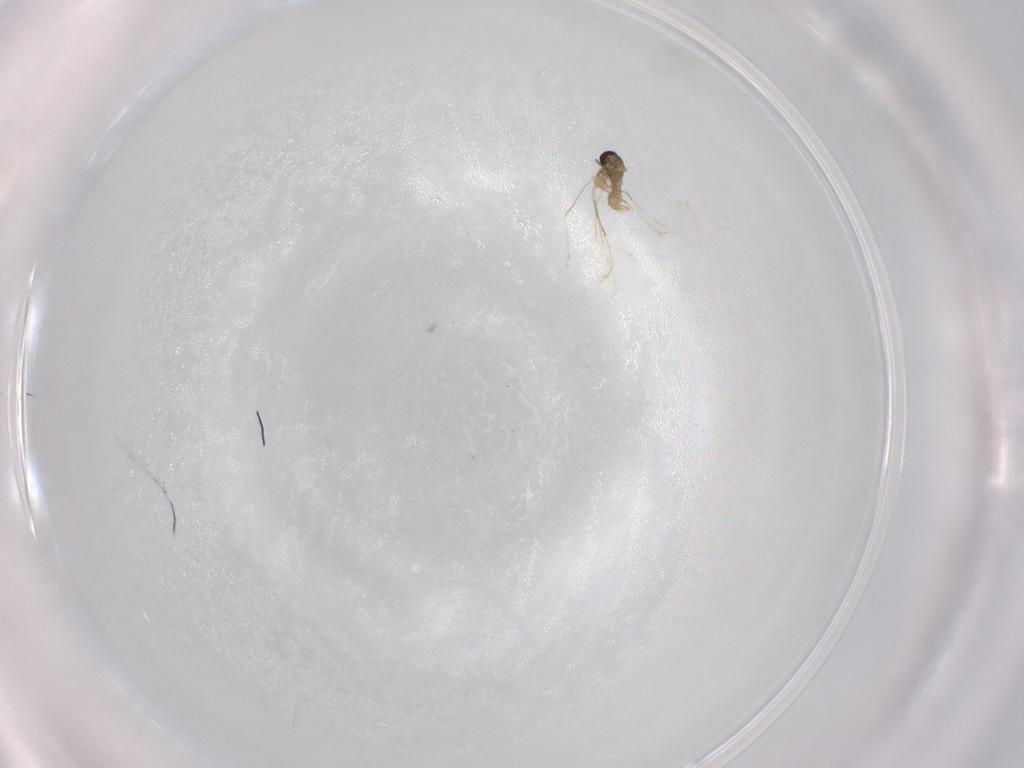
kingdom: Animalia
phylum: Arthropoda
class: Insecta
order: Diptera
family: Cecidomyiidae
